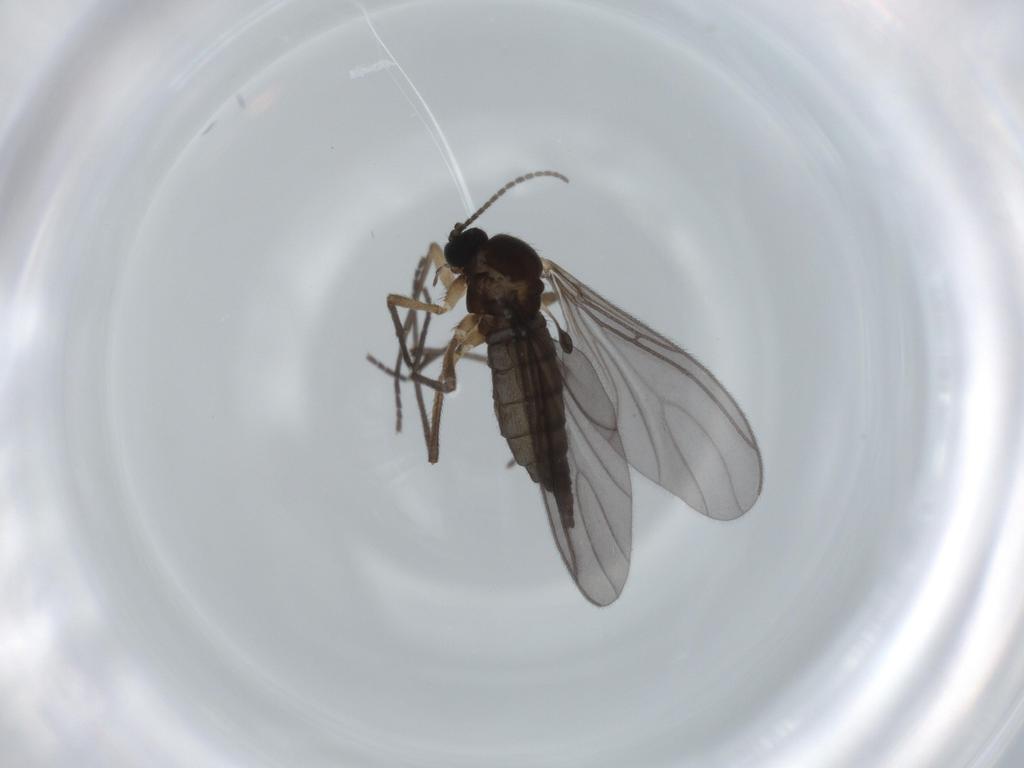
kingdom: Animalia
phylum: Arthropoda
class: Insecta
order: Diptera
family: Sciaridae
